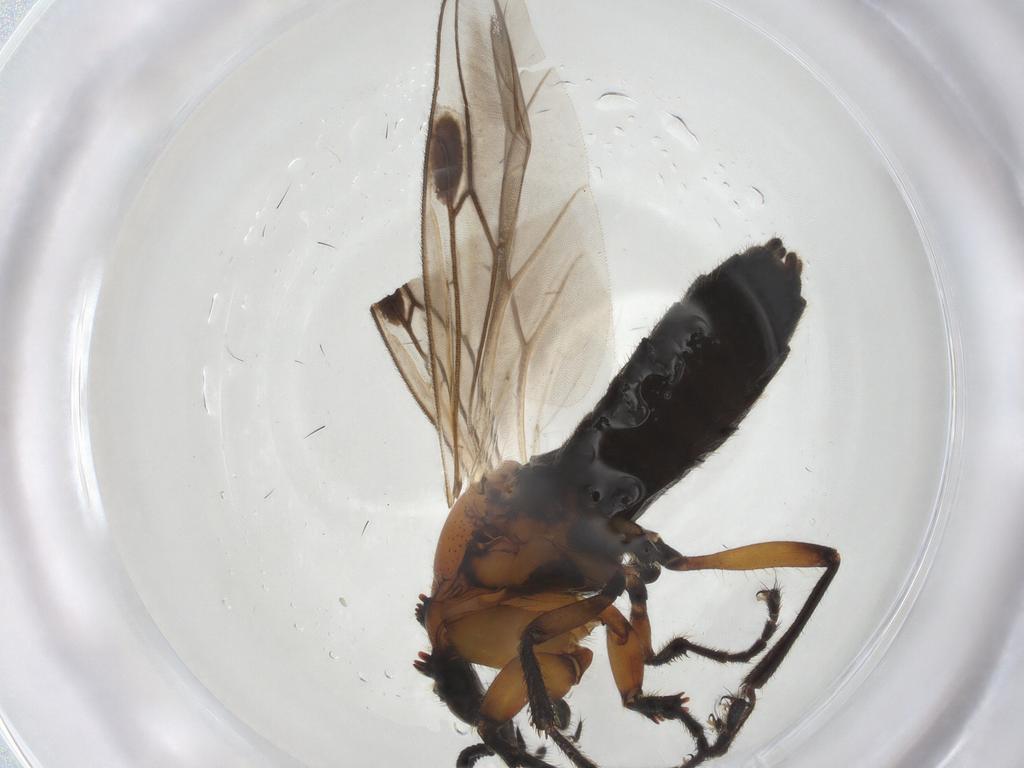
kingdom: Animalia
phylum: Arthropoda
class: Insecta
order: Diptera
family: Bibionidae
